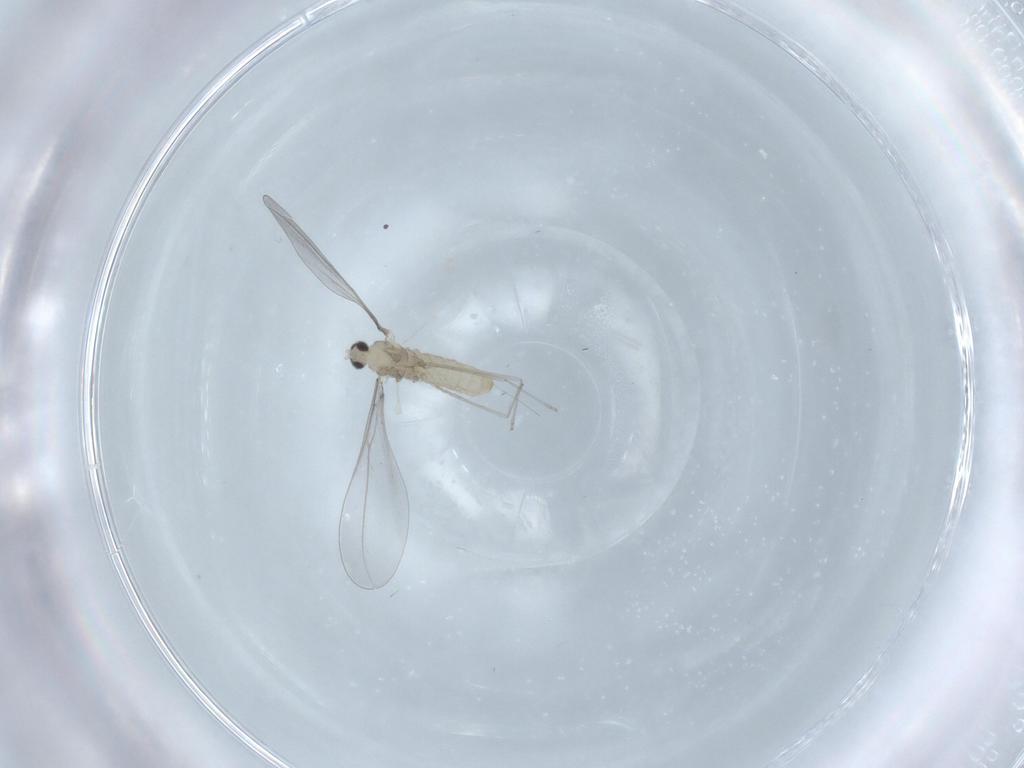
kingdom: Animalia
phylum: Arthropoda
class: Insecta
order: Diptera
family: Cecidomyiidae
